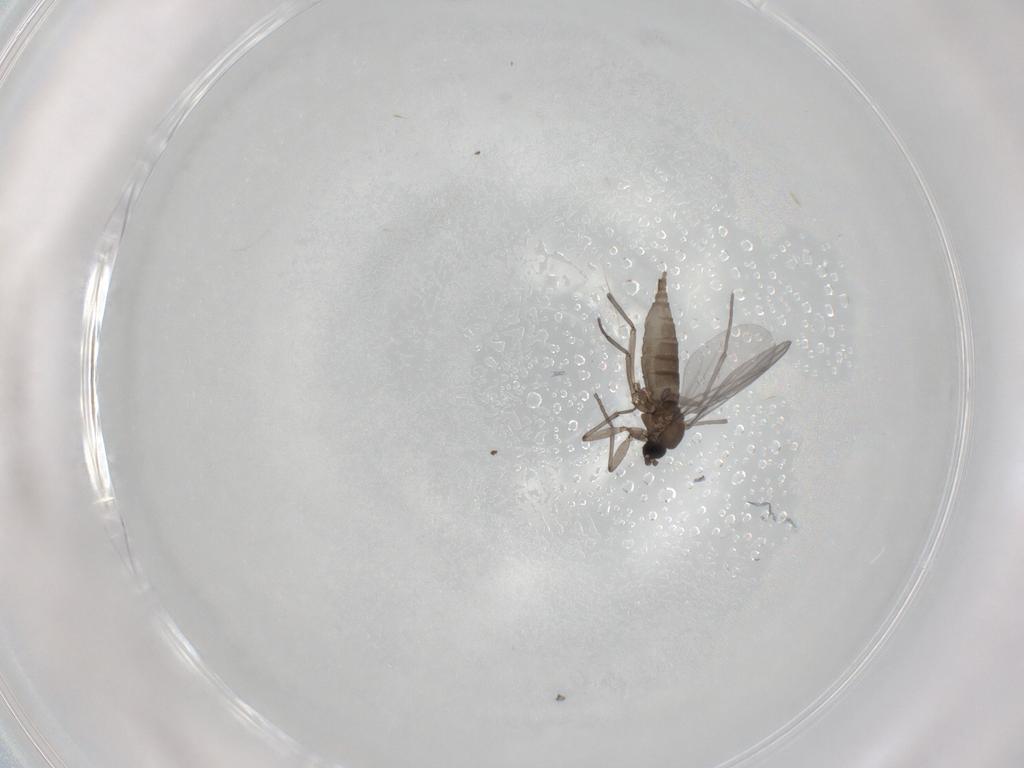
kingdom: Animalia
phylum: Arthropoda
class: Insecta
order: Diptera
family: Sciaridae
